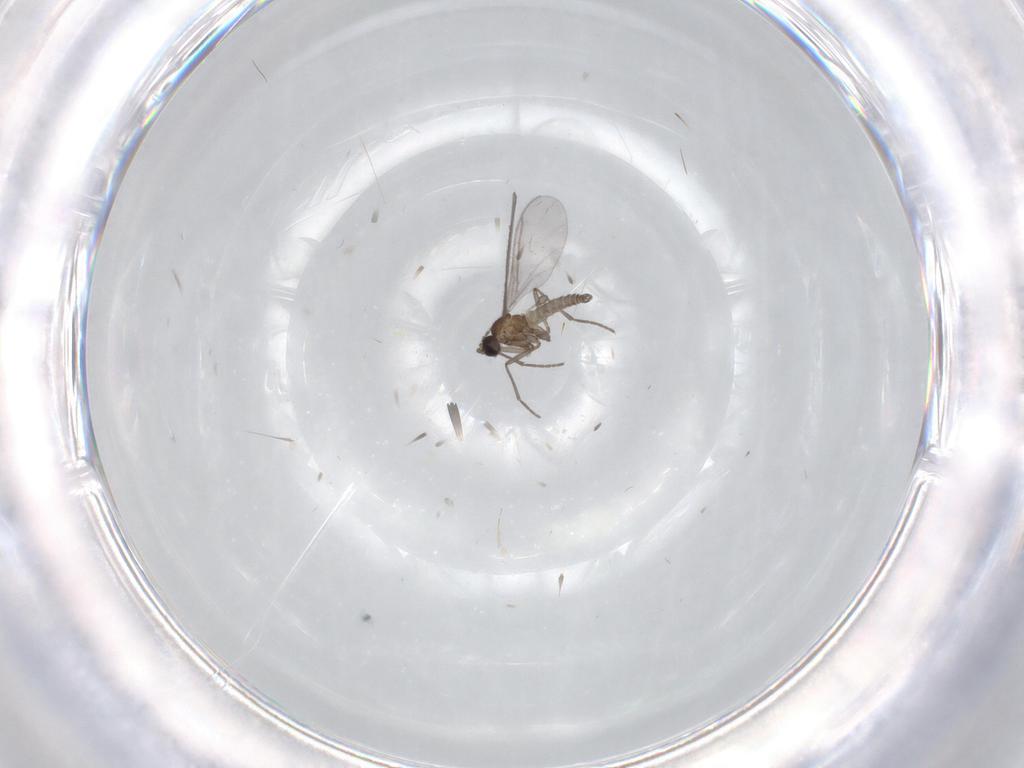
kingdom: Animalia
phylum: Arthropoda
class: Insecta
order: Diptera
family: Sciaridae
